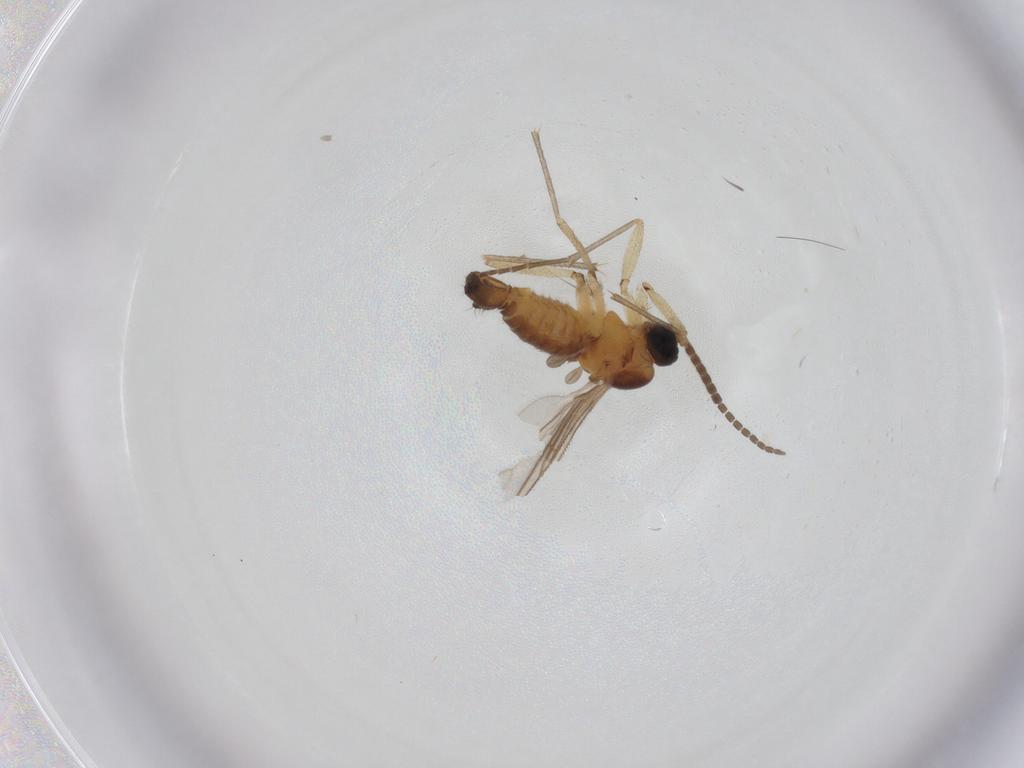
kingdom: Animalia
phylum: Arthropoda
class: Insecta
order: Diptera
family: Sciaridae
